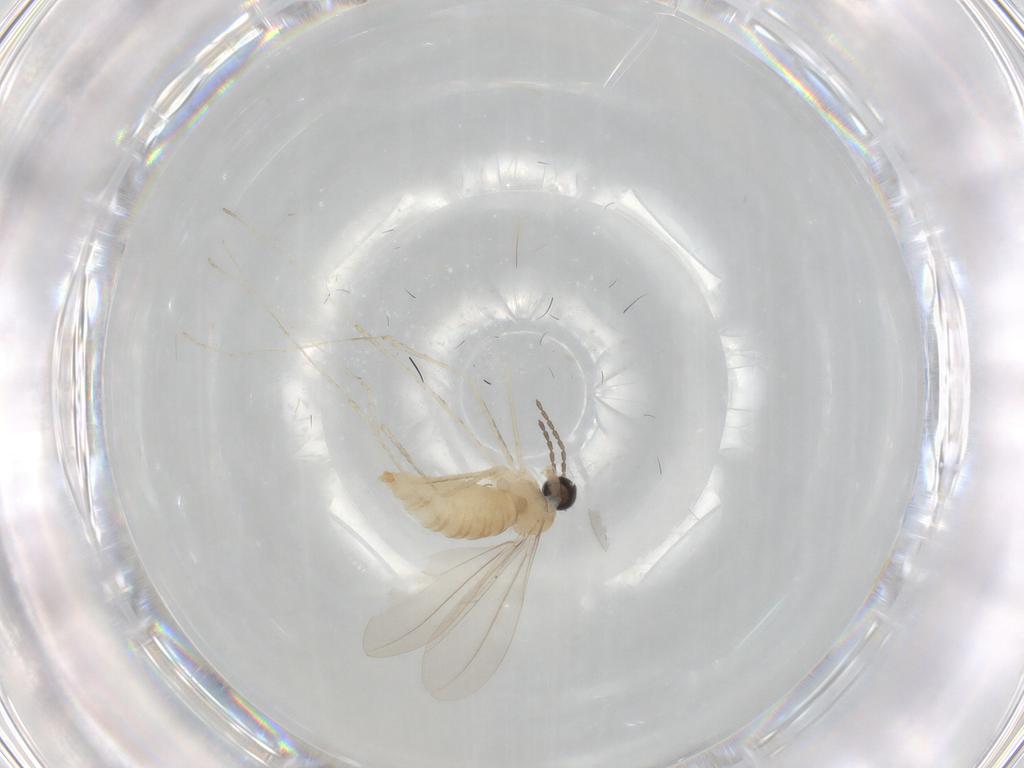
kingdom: Animalia
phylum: Arthropoda
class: Insecta
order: Diptera
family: Cecidomyiidae
